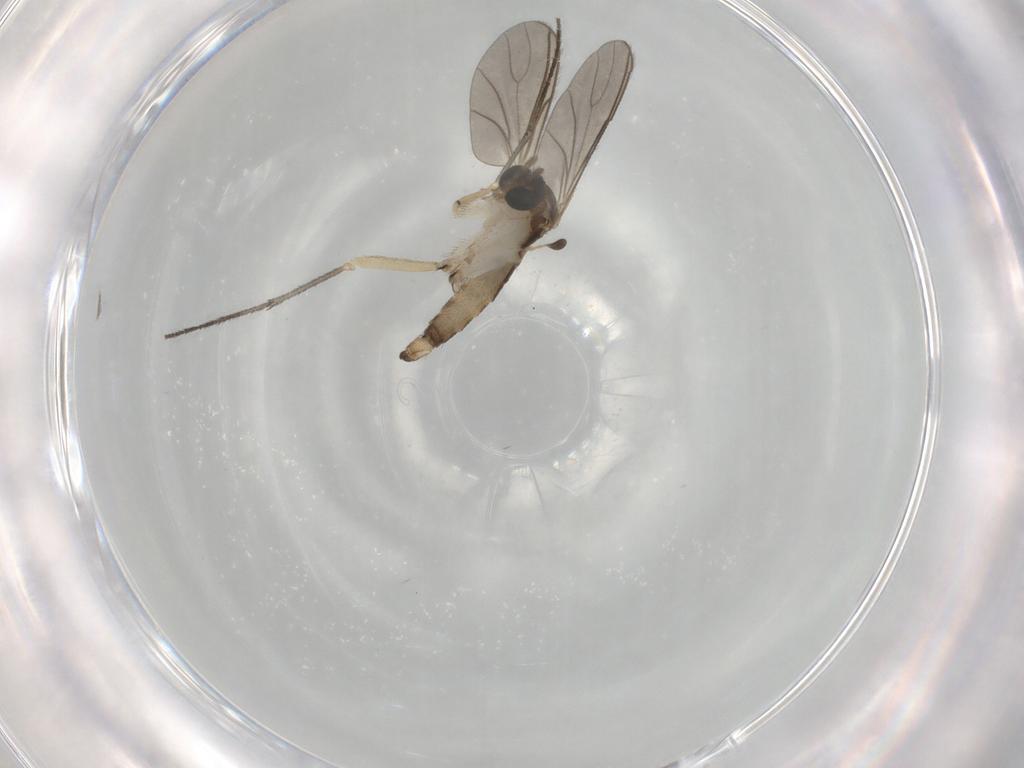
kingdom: Animalia
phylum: Arthropoda
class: Insecta
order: Diptera
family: Sciaridae
